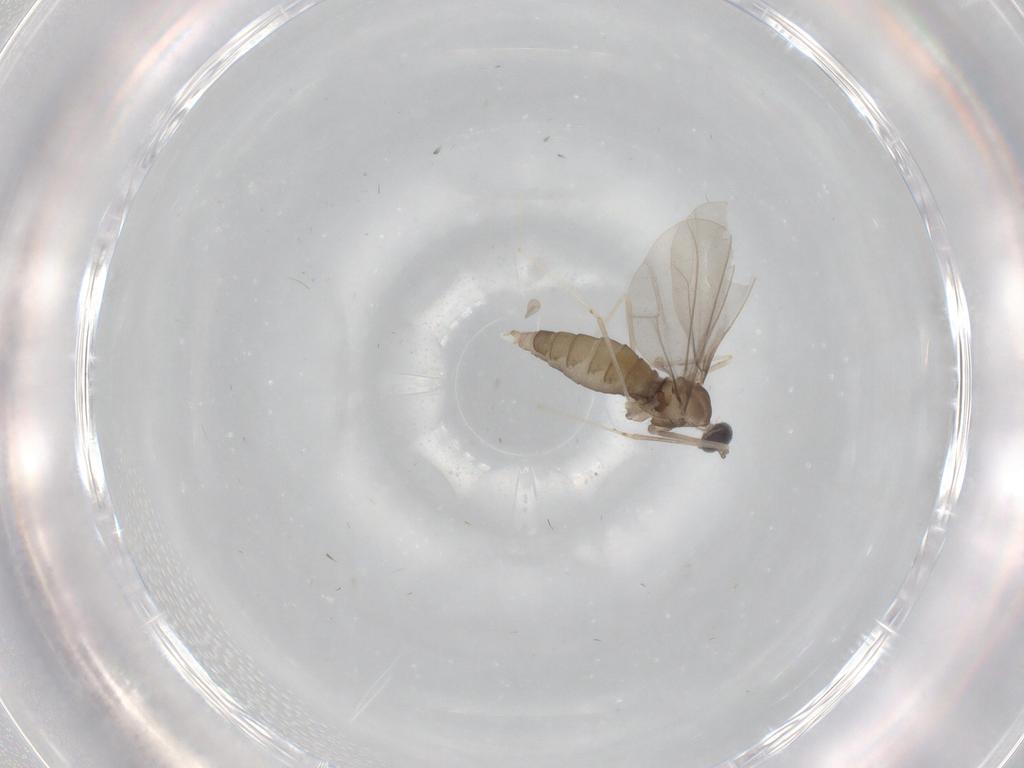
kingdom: Animalia
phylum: Arthropoda
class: Insecta
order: Diptera
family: Cecidomyiidae
